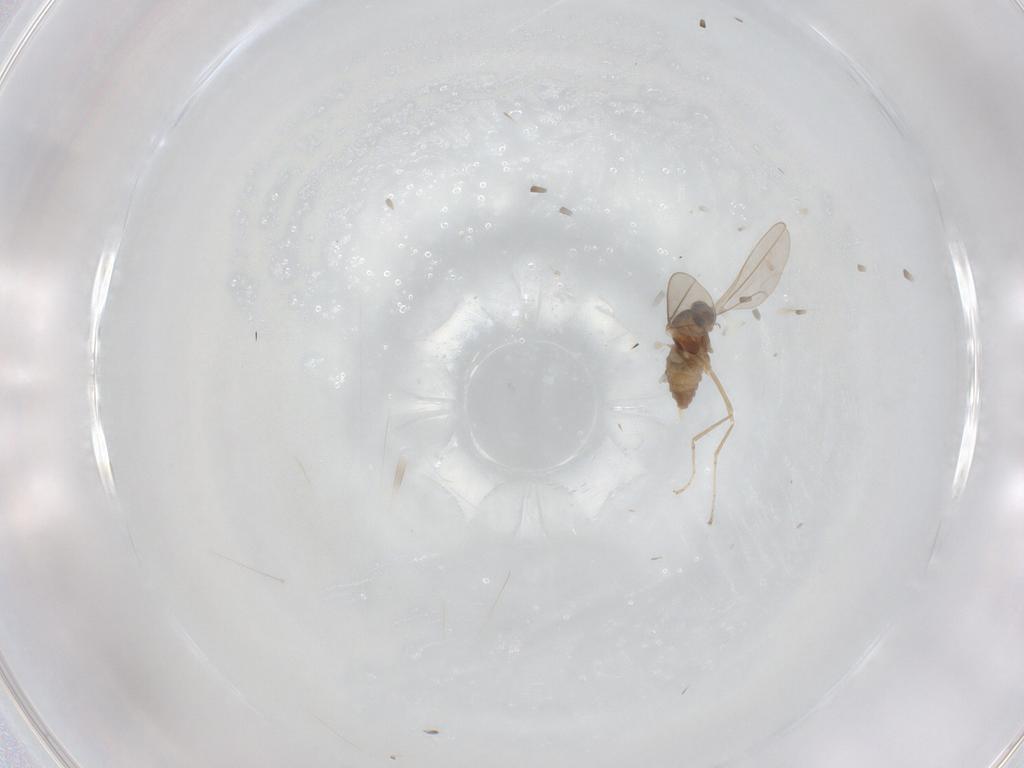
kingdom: Animalia
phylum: Arthropoda
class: Insecta
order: Diptera
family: Cecidomyiidae
